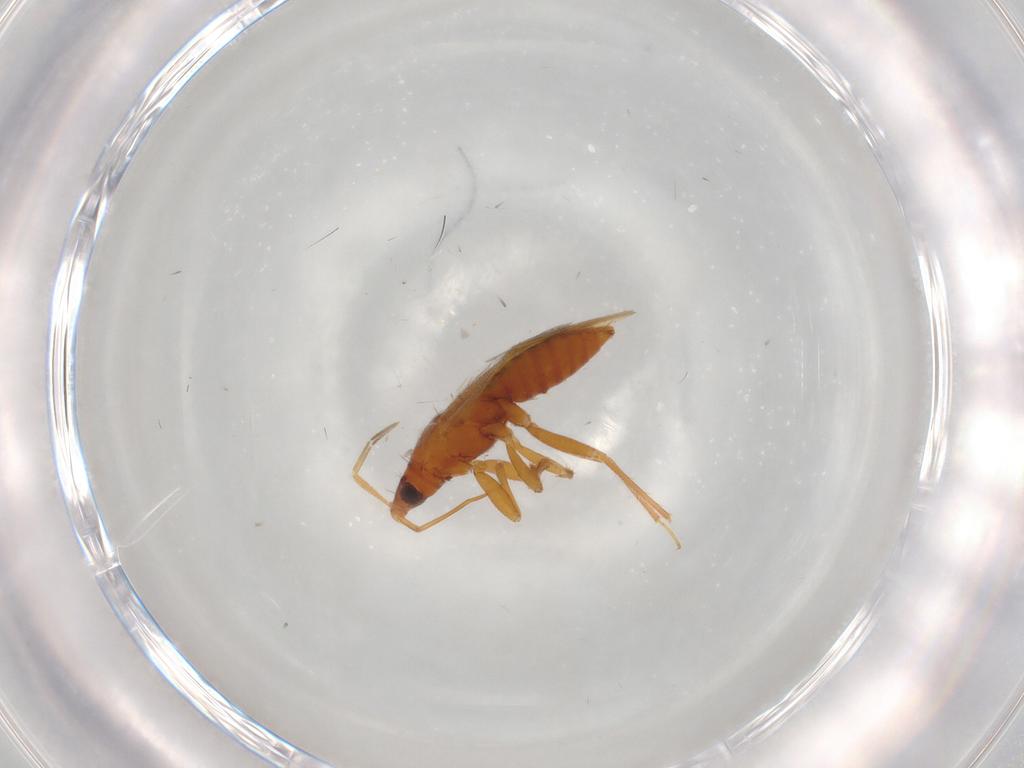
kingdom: Animalia
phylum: Arthropoda
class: Insecta
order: Hemiptera
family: Anthocoridae
